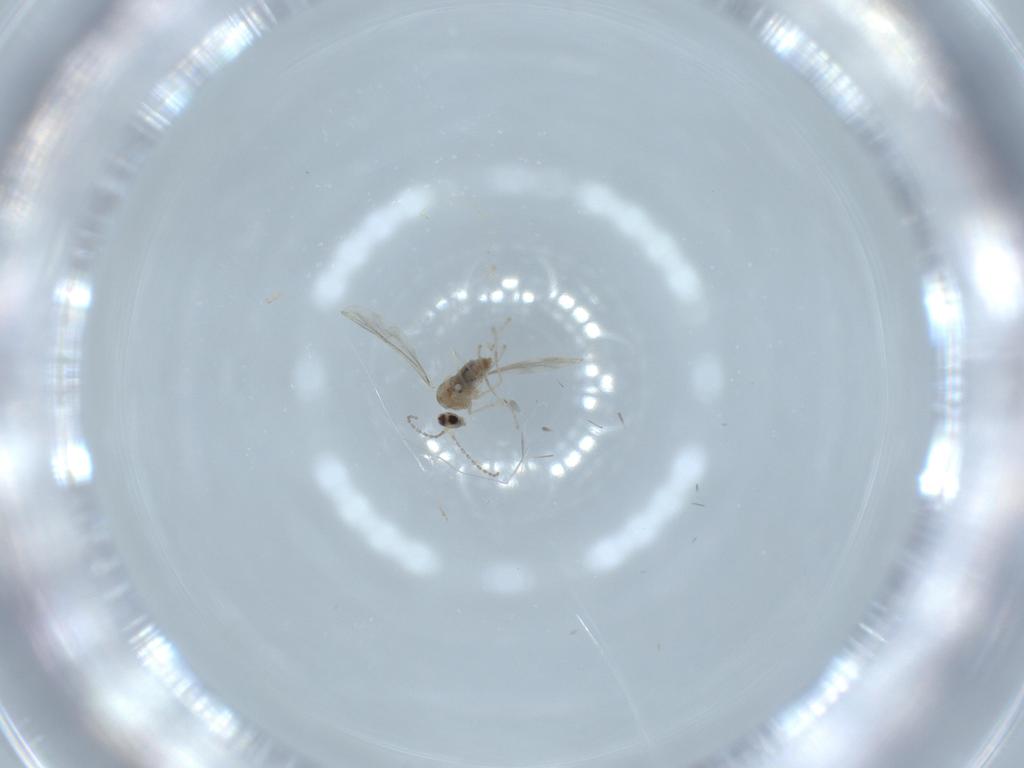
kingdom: Animalia
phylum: Arthropoda
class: Insecta
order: Diptera
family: Cecidomyiidae
